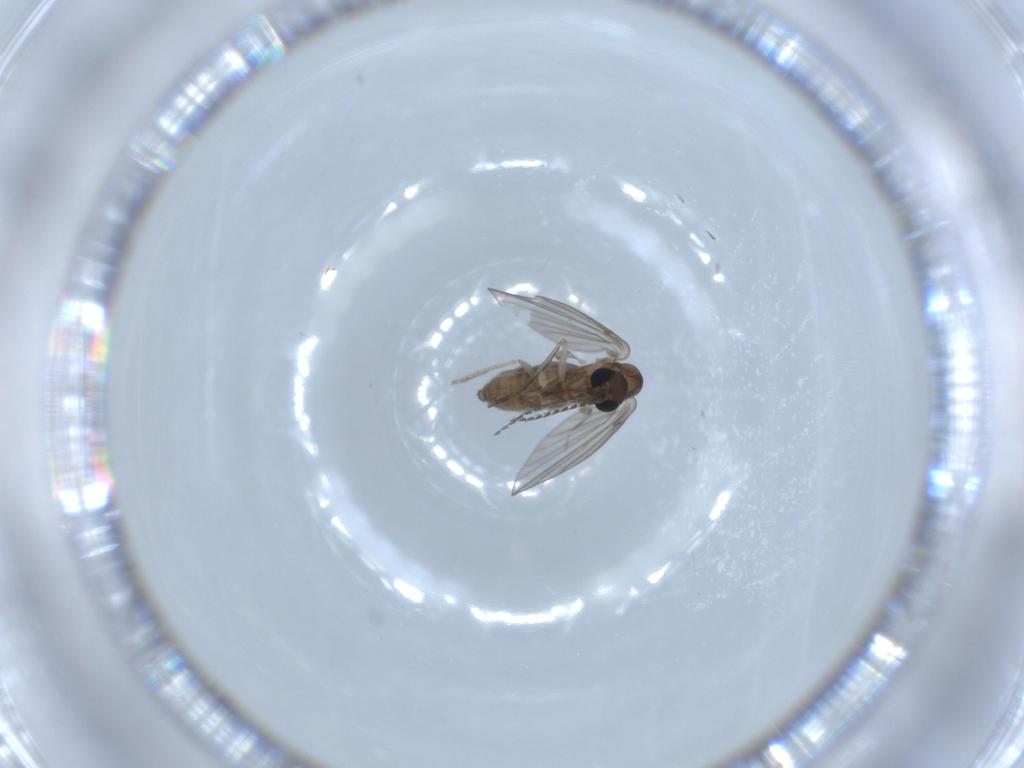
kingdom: Animalia
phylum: Arthropoda
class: Insecta
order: Diptera
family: Psychodidae
